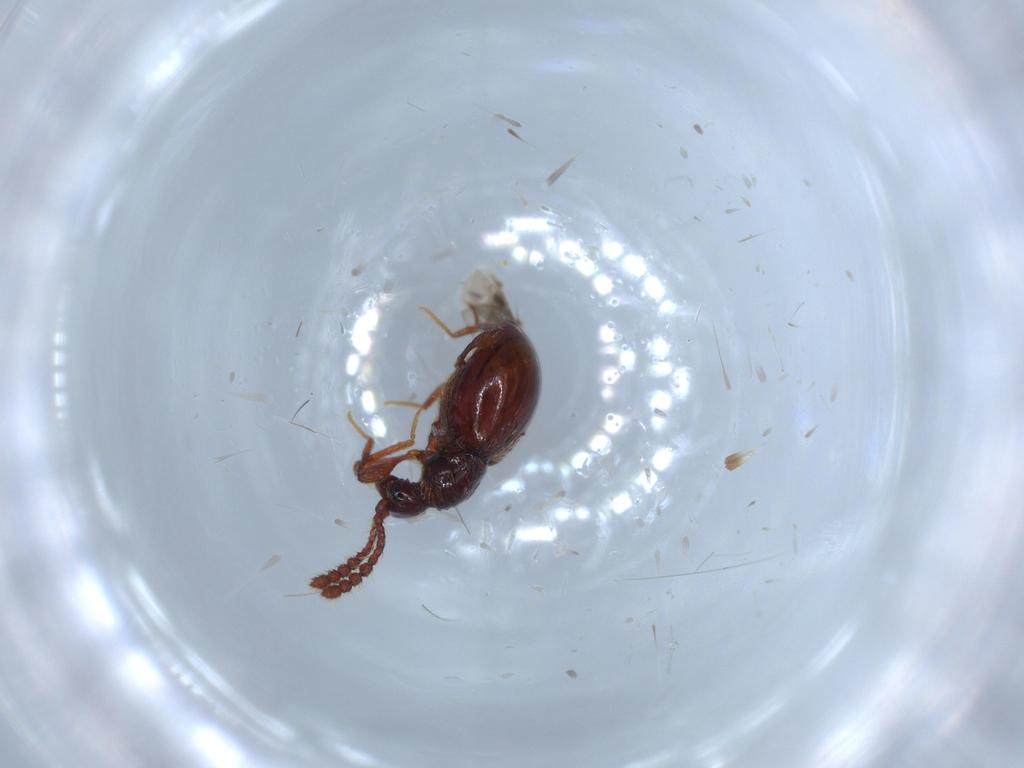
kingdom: Animalia
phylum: Arthropoda
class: Insecta
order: Coleoptera
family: Staphylinidae
